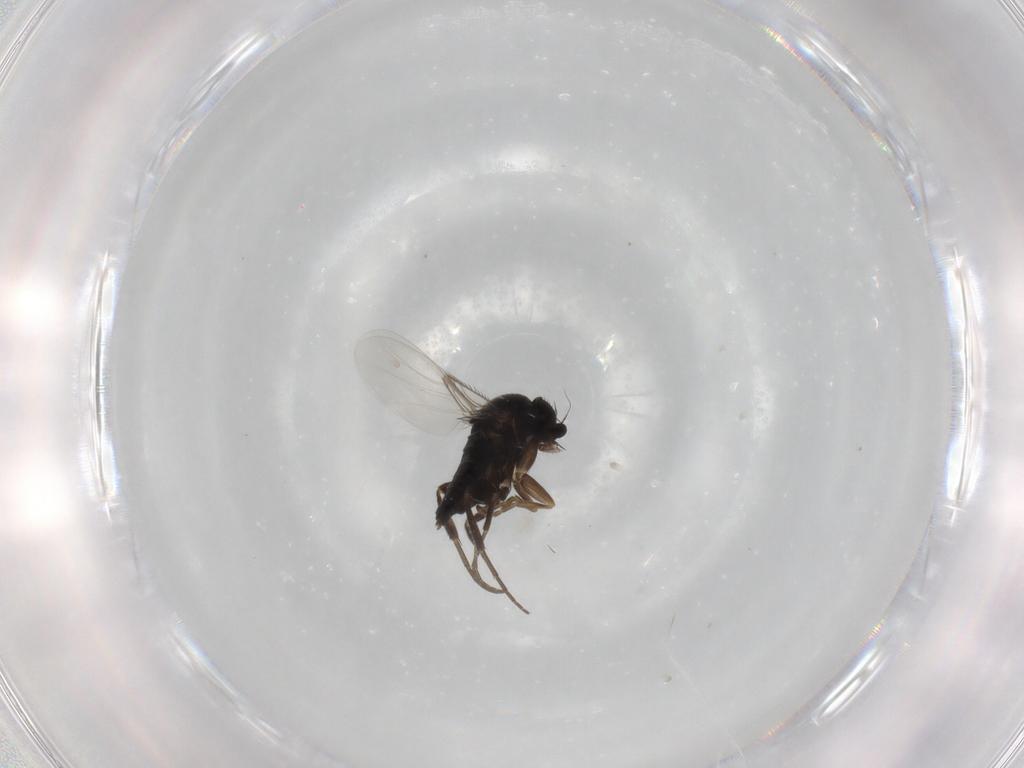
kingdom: Animalia
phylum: Arthropoda
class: Insecta
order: Diptera
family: Phoridae
